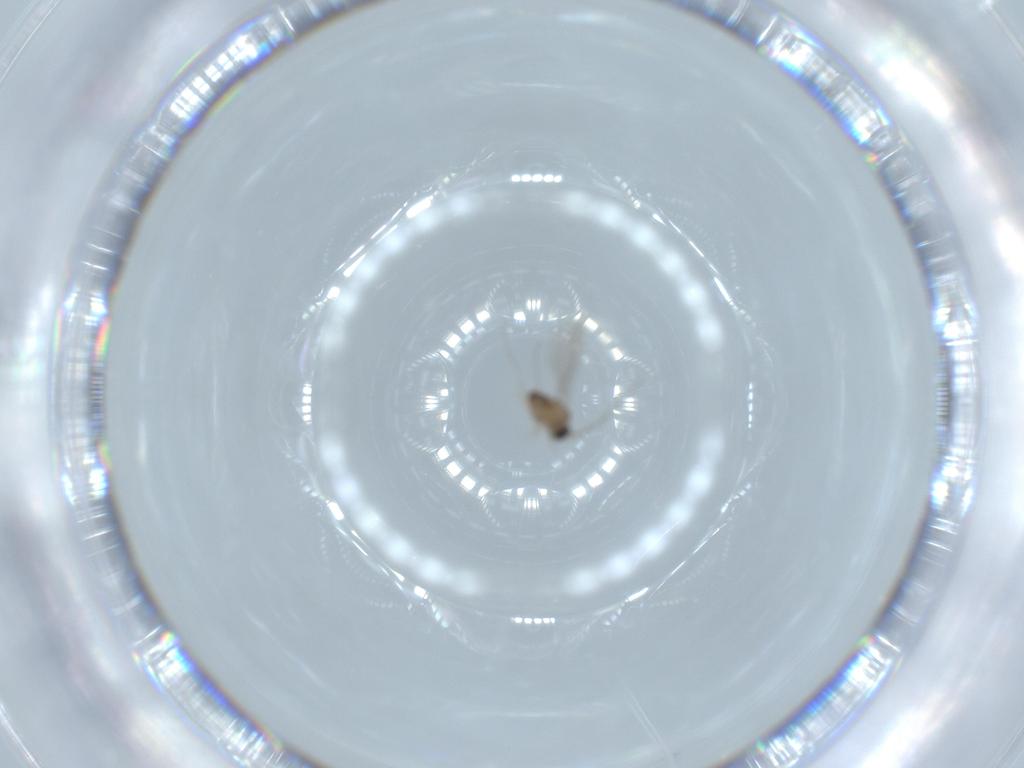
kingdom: Animalia
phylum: Arthropoda
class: Insecta
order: Diptera
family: Cecidomyiidae
